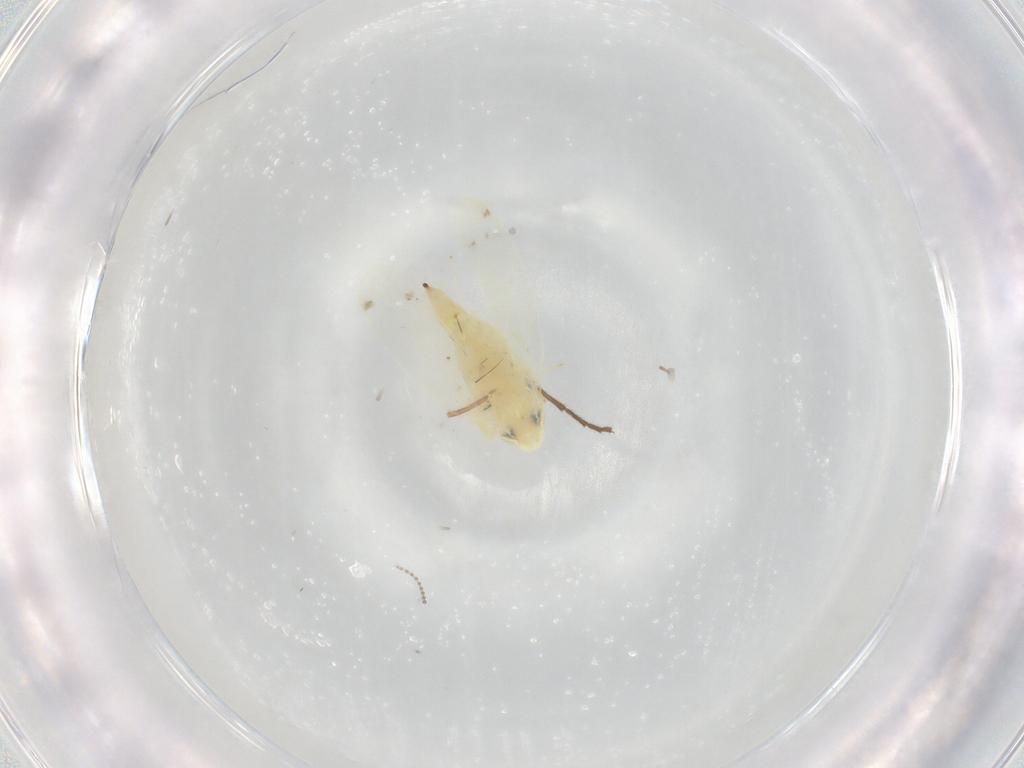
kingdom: Animalia
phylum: Arthropoda
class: Insecta
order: Hemiptera
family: Cicadellidae
